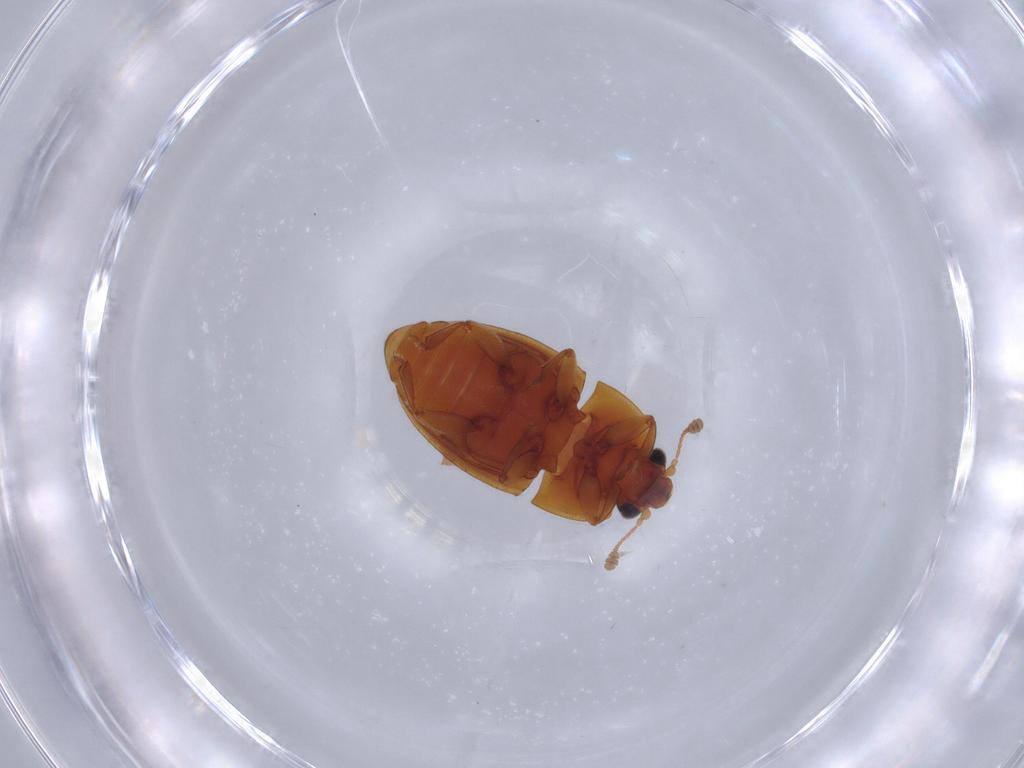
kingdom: Animalia
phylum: Arthropoda
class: Insecta
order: Coleoptera
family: Nitidulidae
